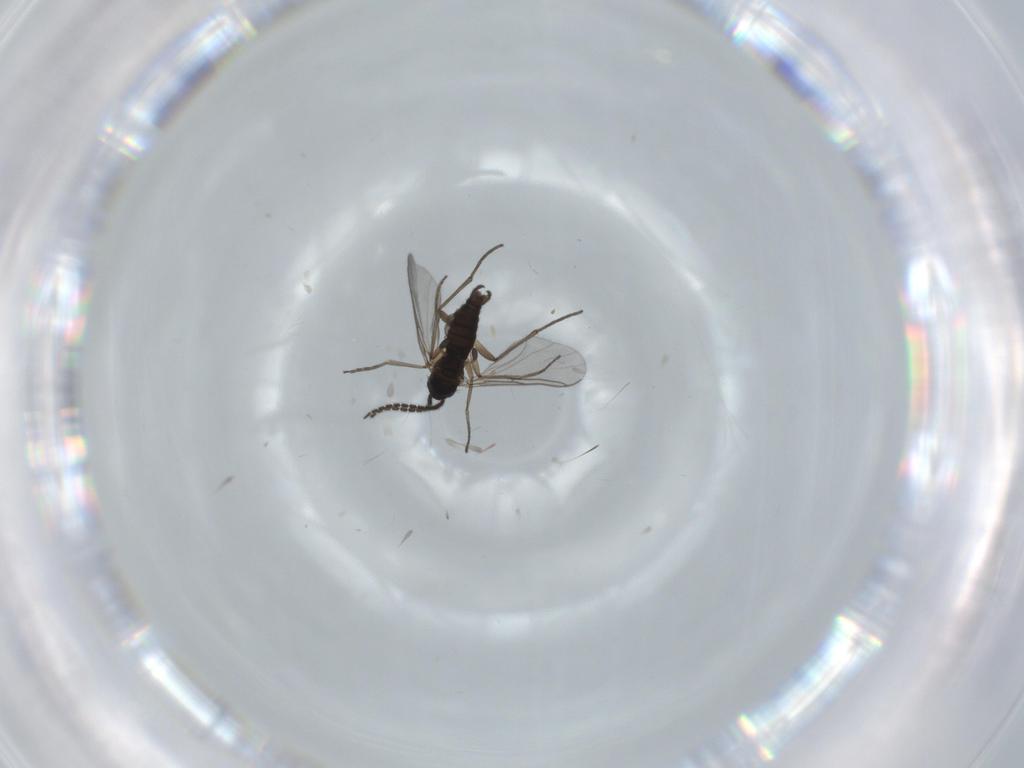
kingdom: Animalia
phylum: Arthropoda
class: Insecta
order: Diptera
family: Sciaridae
